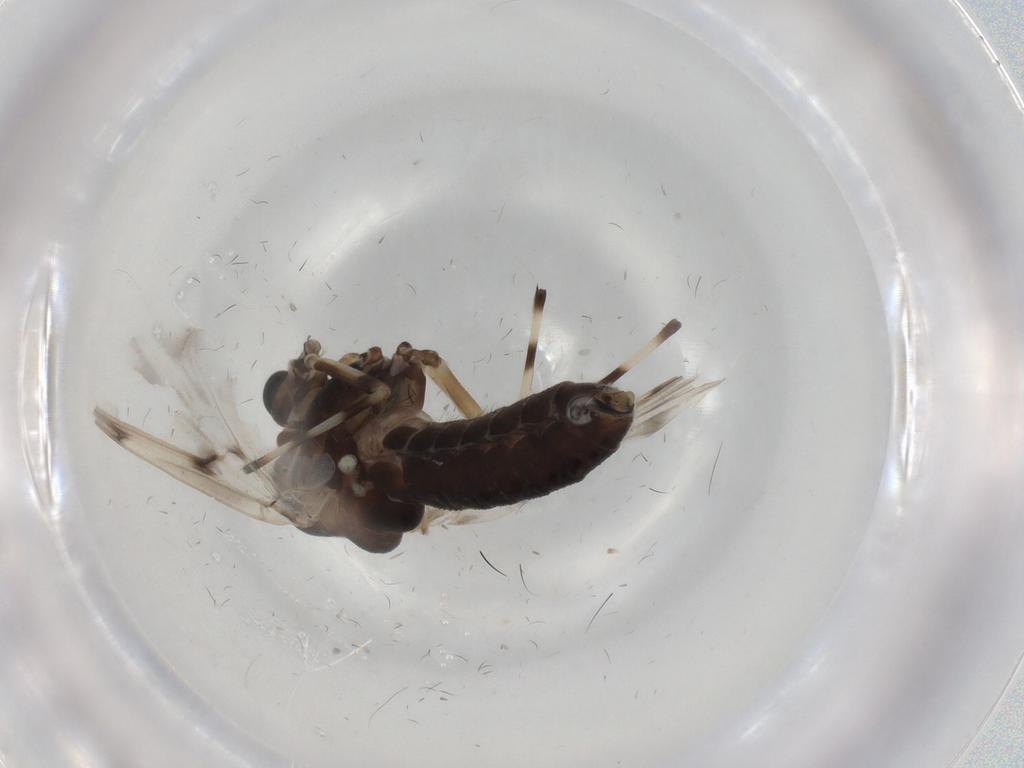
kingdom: Animalia
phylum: Arthropoda
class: Insecta
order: Diptera
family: Chironomidae
